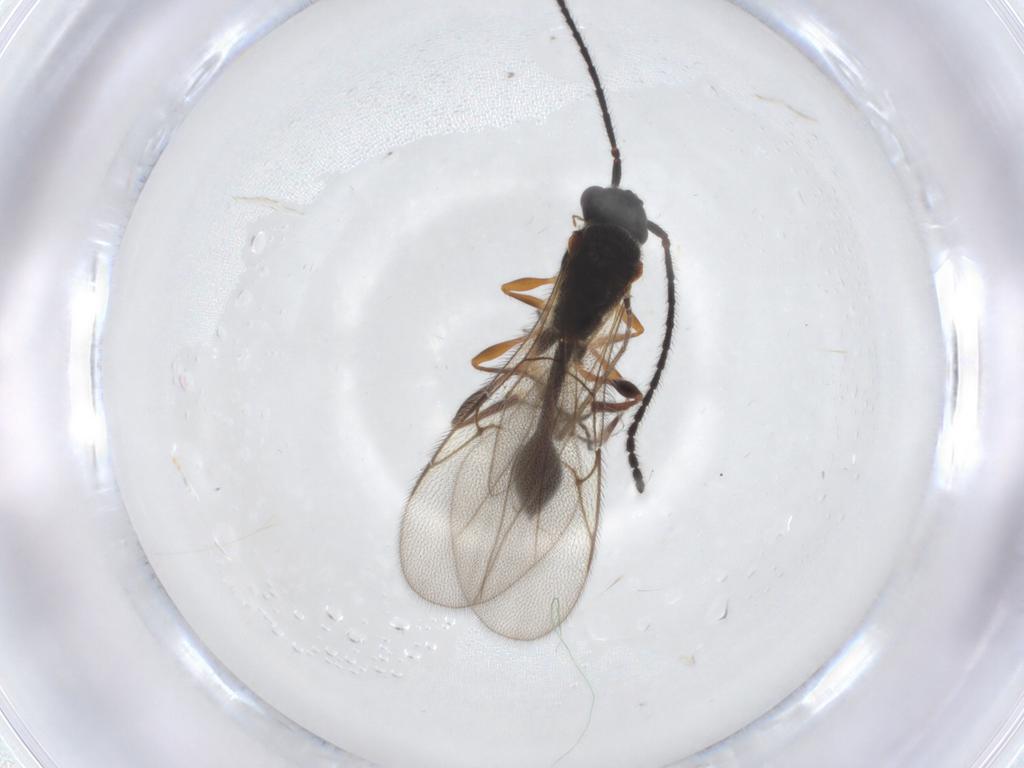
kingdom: Animalia
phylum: Arthropoda
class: Insecta
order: Hymenoptera
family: Diapriidae
